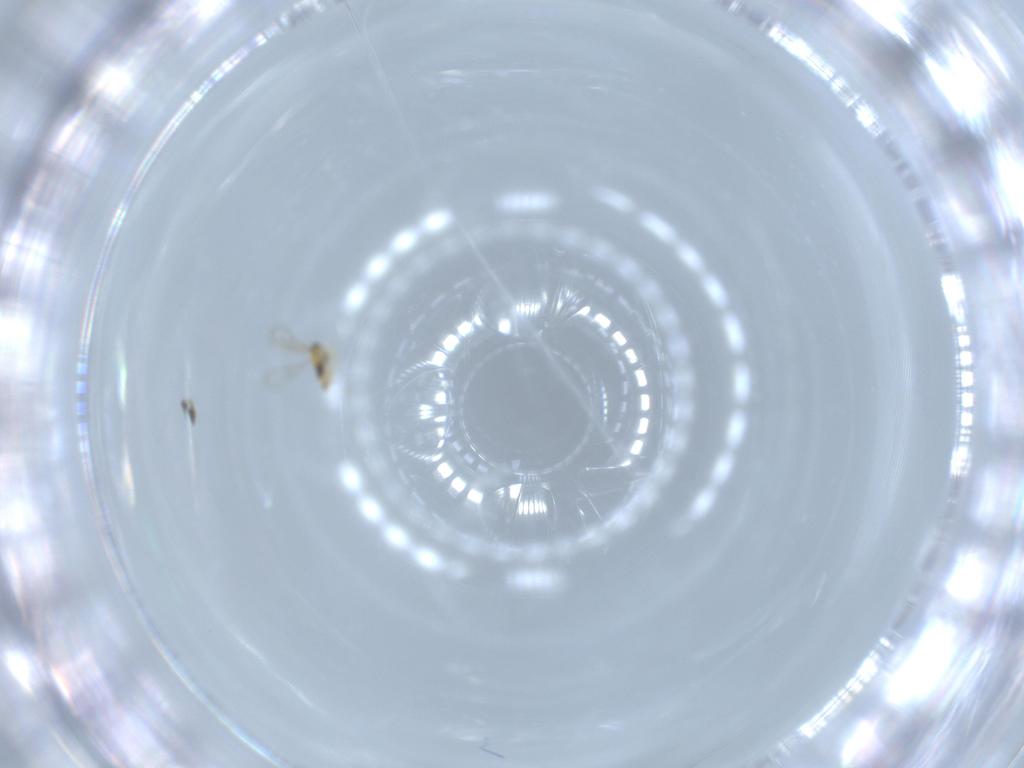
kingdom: Animalia
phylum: Arthropoda
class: Insecta
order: Hymenoptera
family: Aphelinidae
